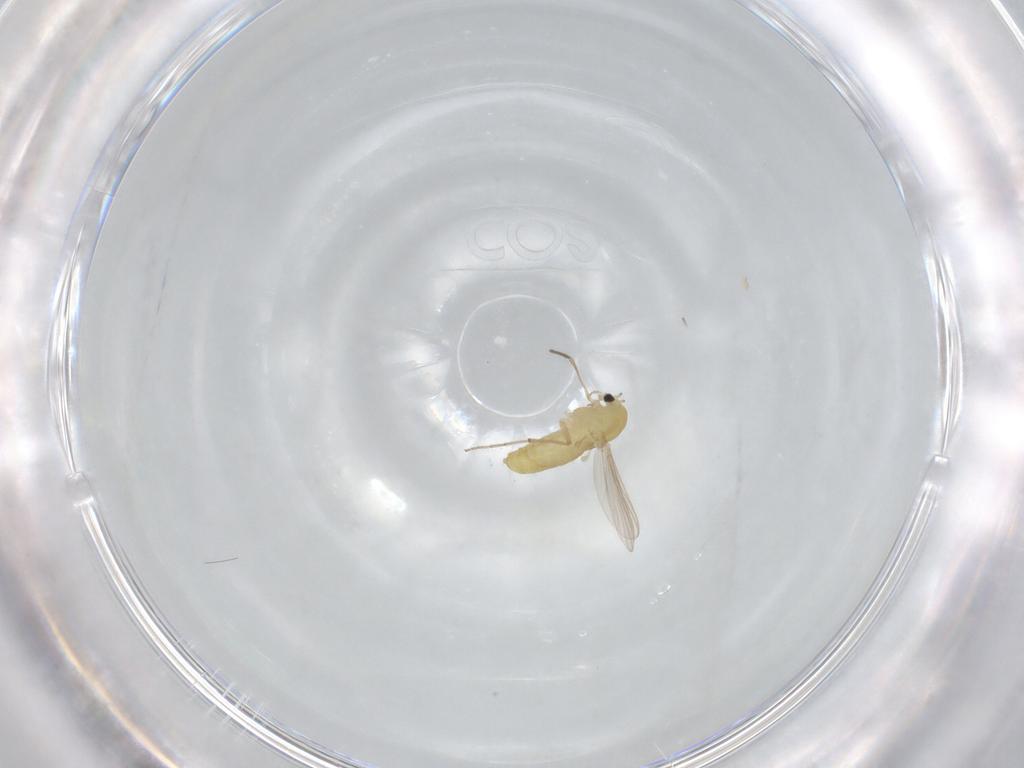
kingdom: Animalia
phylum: Arthropoda
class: Insecta
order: Diptera
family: Chironomidae
